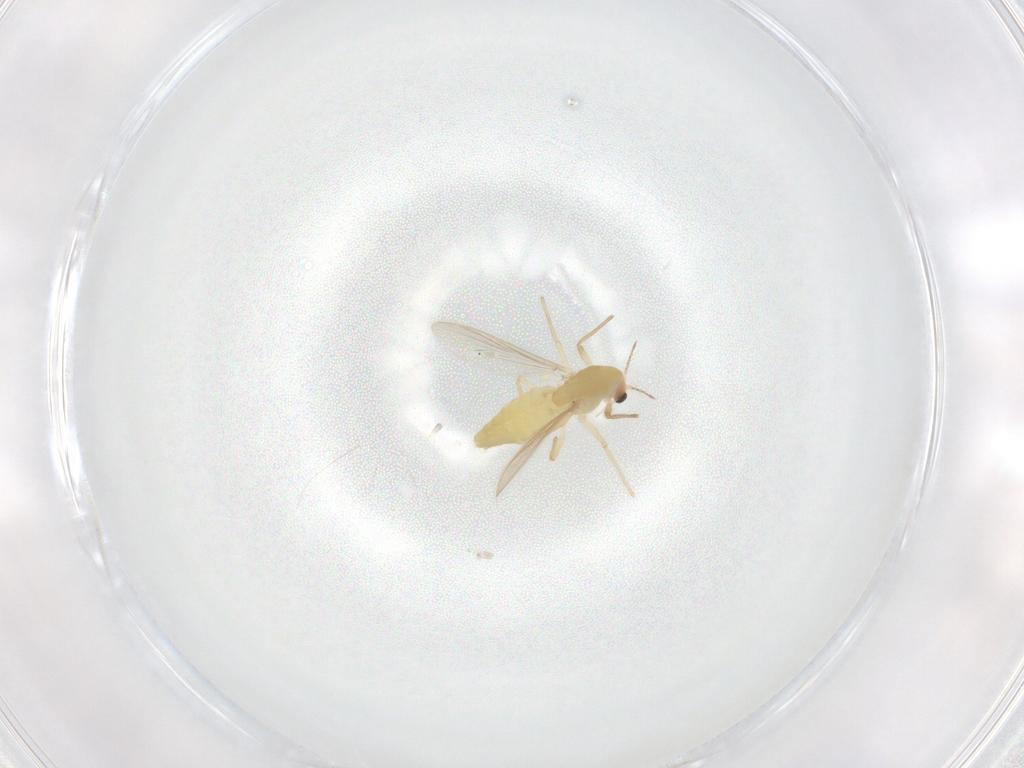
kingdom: Animalia
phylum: Arthropoda
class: Insecta
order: Diptera
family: Chironomidae
